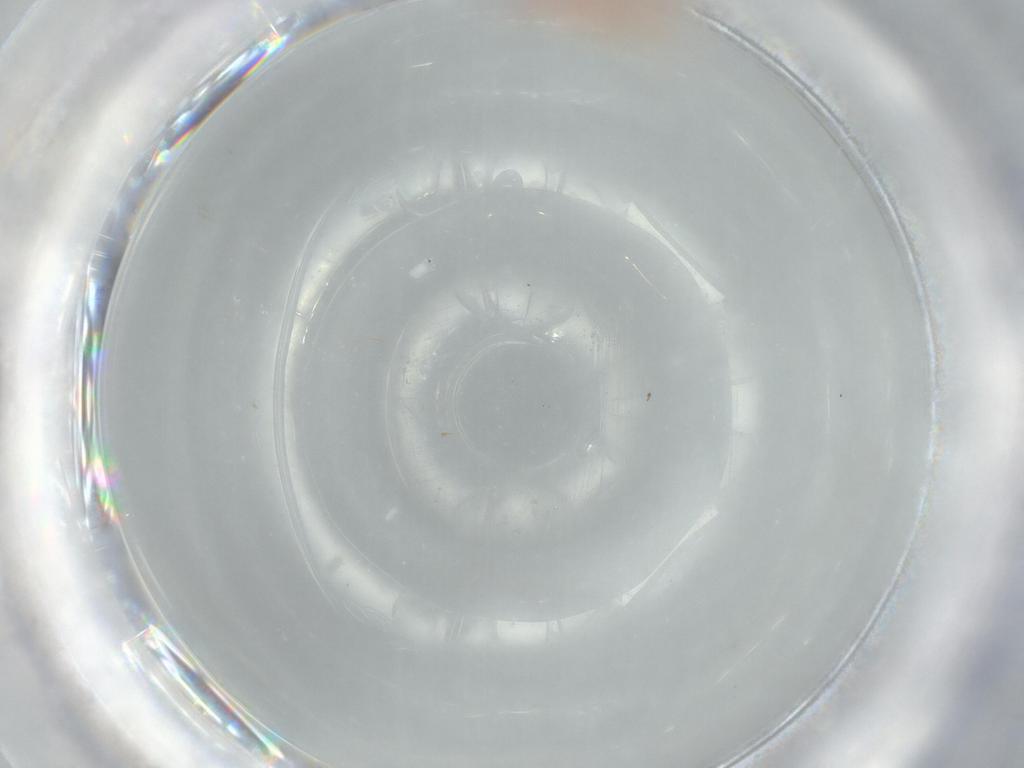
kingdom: Animalia
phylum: Arthropoda
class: Insecta
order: Hemiptera
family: Coccoidea_incertae_sedis
